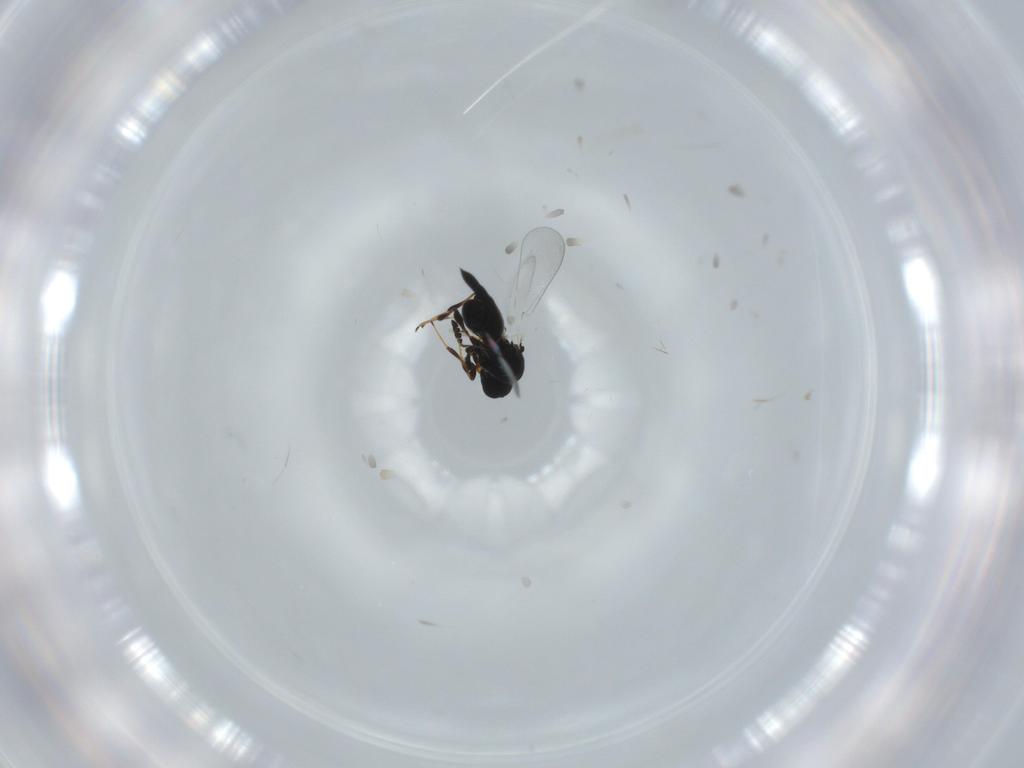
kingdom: Animalia
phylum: Arthropoda
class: Insecta
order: Hymenoptera
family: Platygastridae
